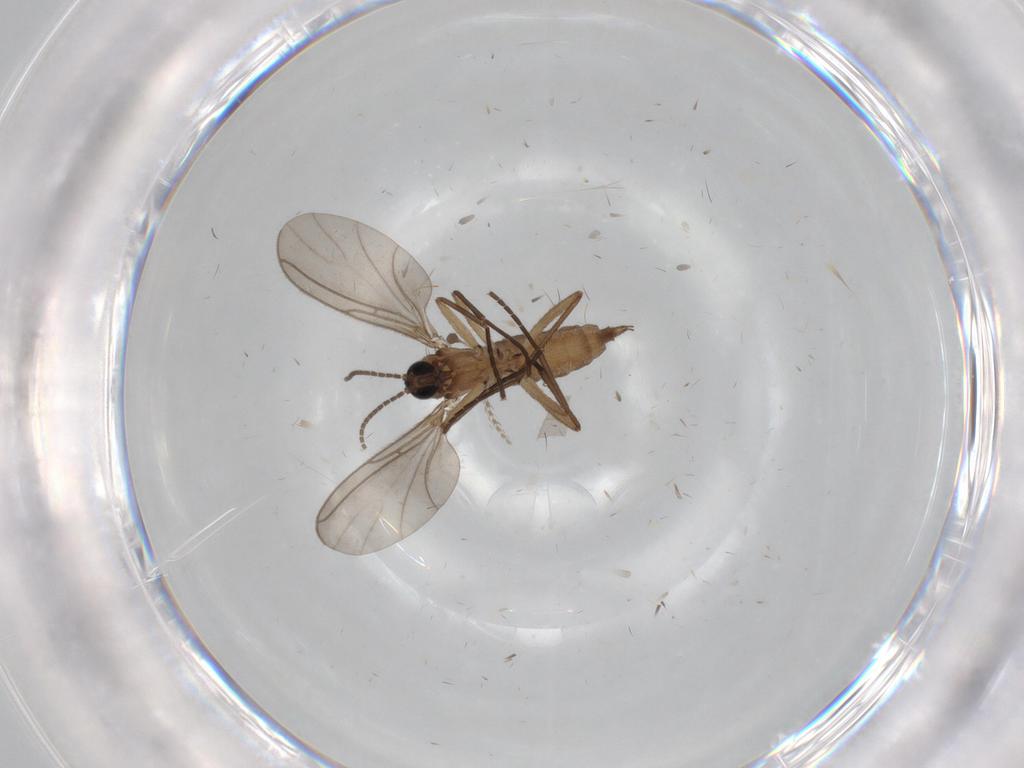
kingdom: Animalia
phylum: Arthropoda
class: Insecta
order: Diptera
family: Sciaridae
